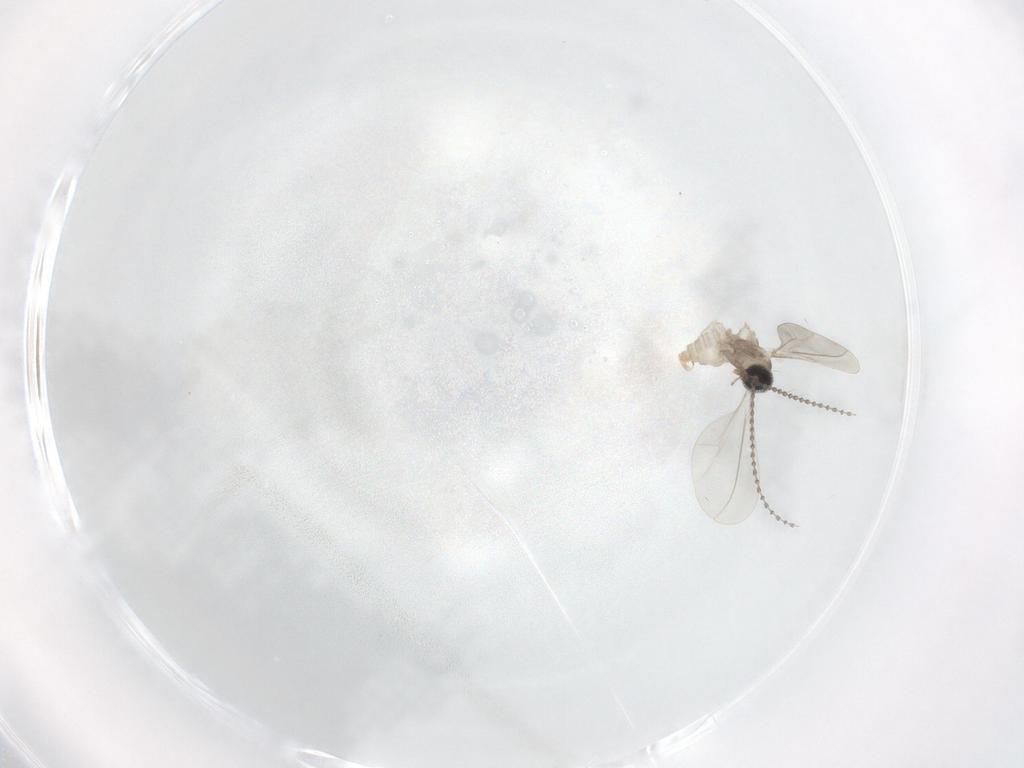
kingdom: Animalia
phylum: Arthropoda
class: Insecta
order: Diptera
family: Cecidomyiidae
